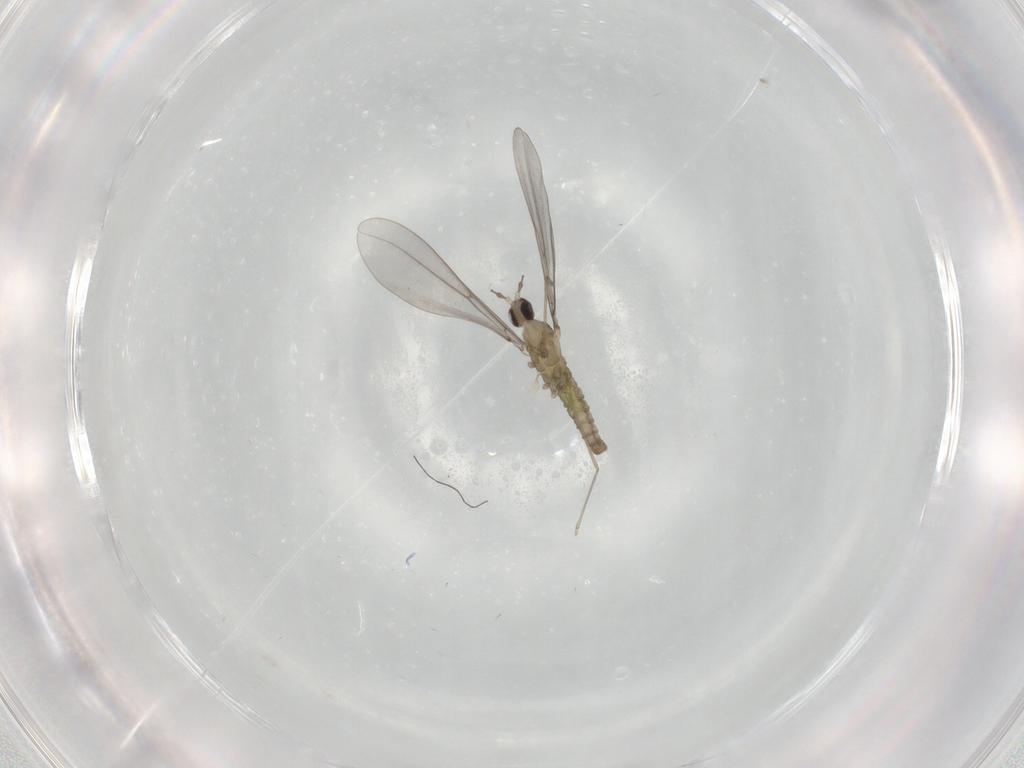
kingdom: Animalia
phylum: Arthropoda
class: Insecta
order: Diptera
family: Cecidomyiidae
